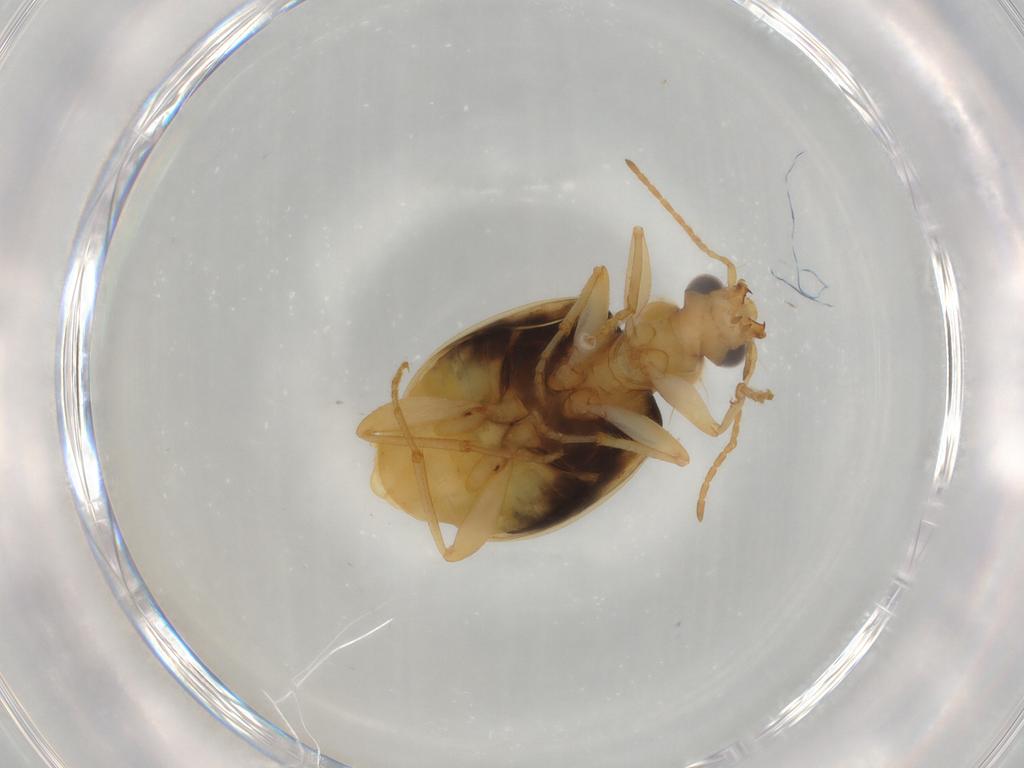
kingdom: Animalia
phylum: Arthropoda
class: Insecta
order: Coleoptera
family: Carabidae
